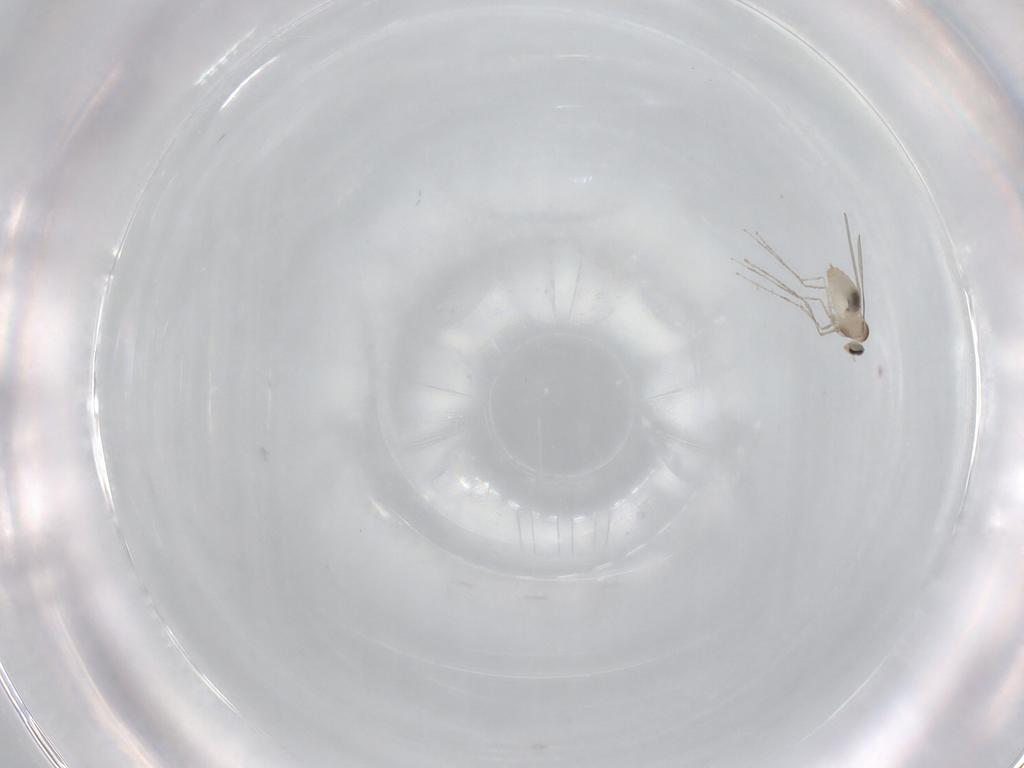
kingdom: Animalia
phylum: Arthropoda
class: Insecta
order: Diptera
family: Cecidomyiidae
